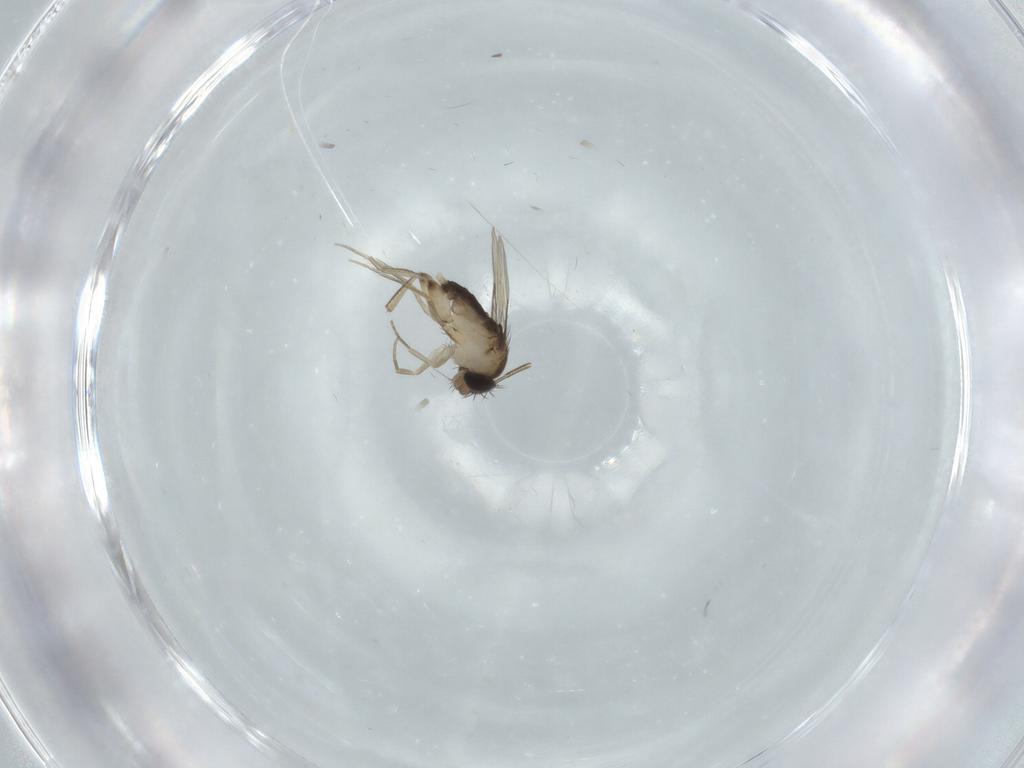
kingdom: Animalia
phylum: Arthropoda
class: Insecta
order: Diptera
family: Phoridae
